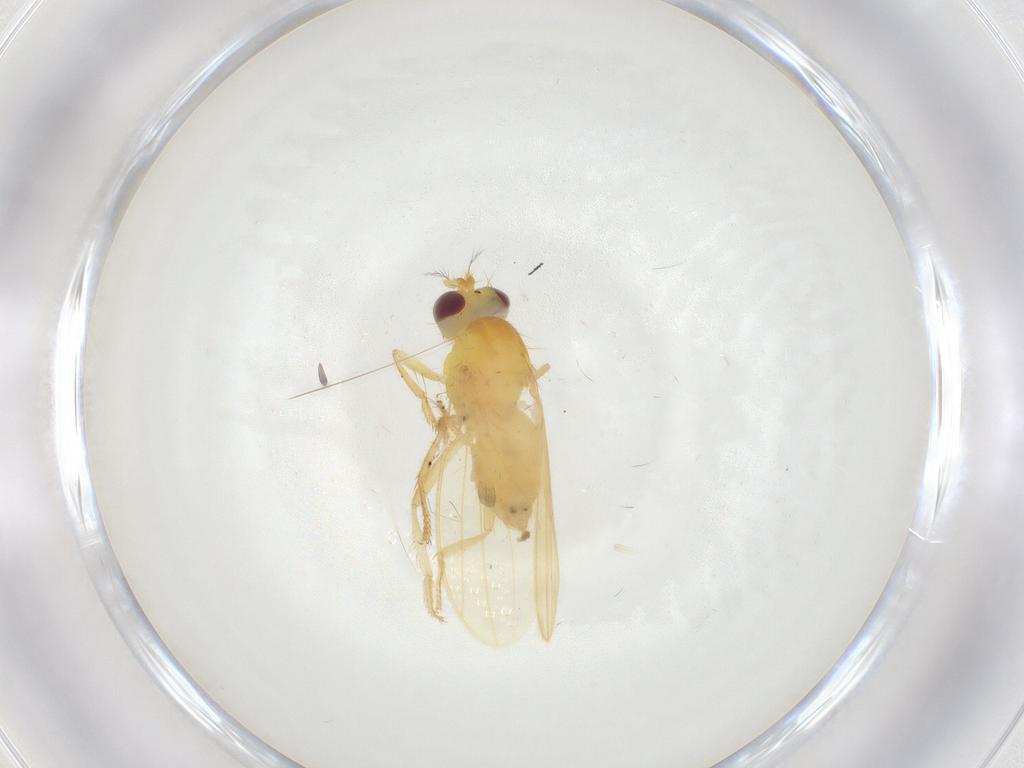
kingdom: Animalia
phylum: Arthropoda
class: Insecta
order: Diptera
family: Periscelididae
